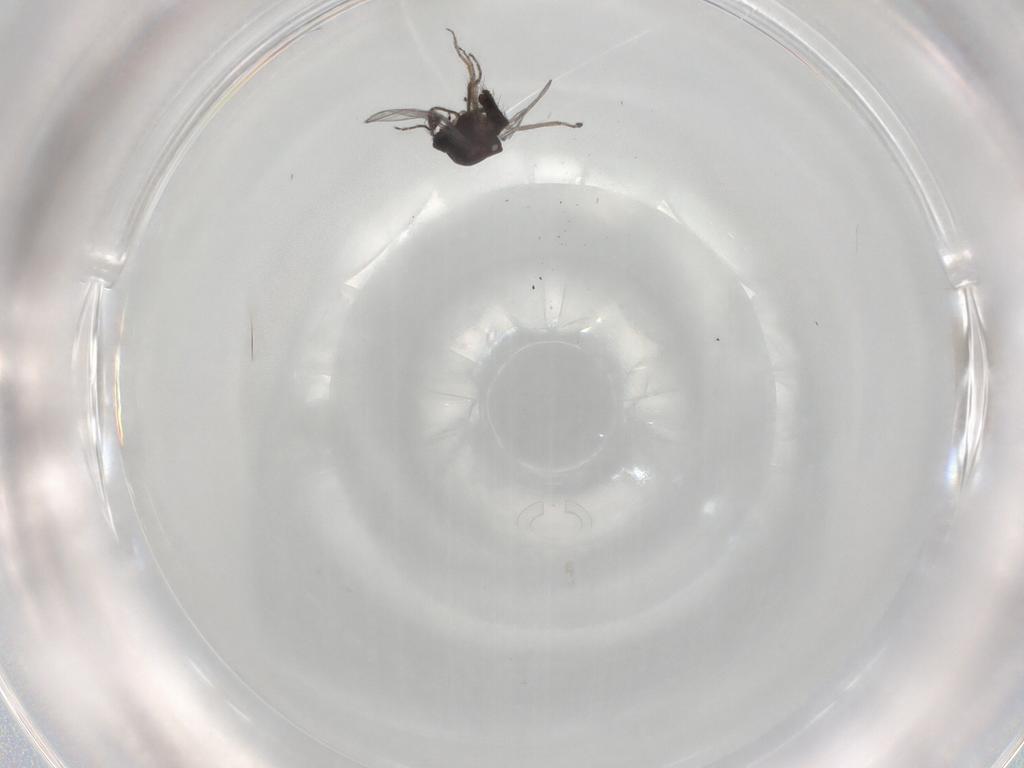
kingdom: Animalia
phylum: Arthropoda
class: Insecta
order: Diptera
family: Ceratopogonidae
